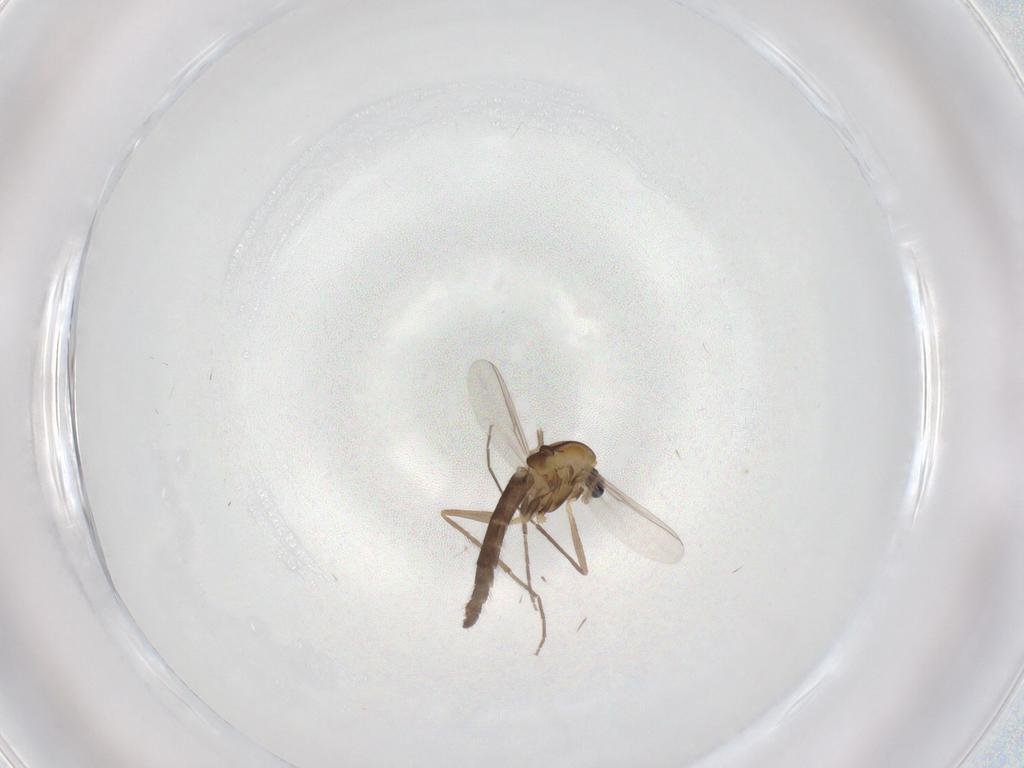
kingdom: Animalia
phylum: Arthropoda
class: Insecta
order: Diptera
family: Chironomidae
